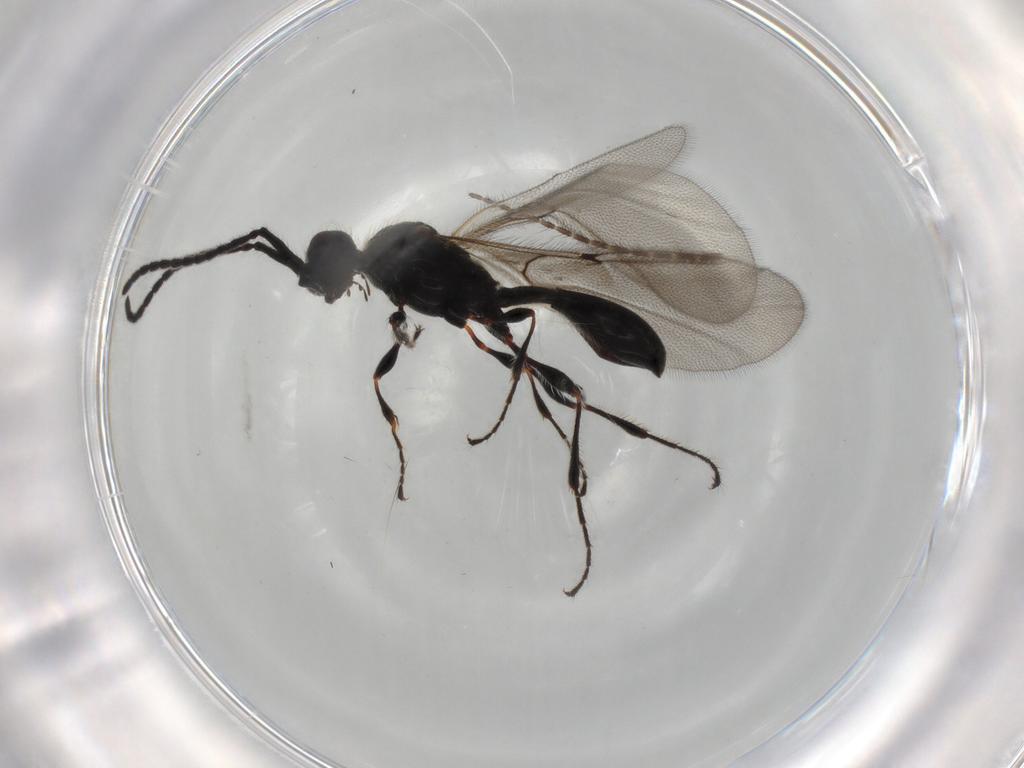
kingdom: Animalia
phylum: Arthropoda
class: Insecta
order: Hymenoptera
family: Diapriidae
